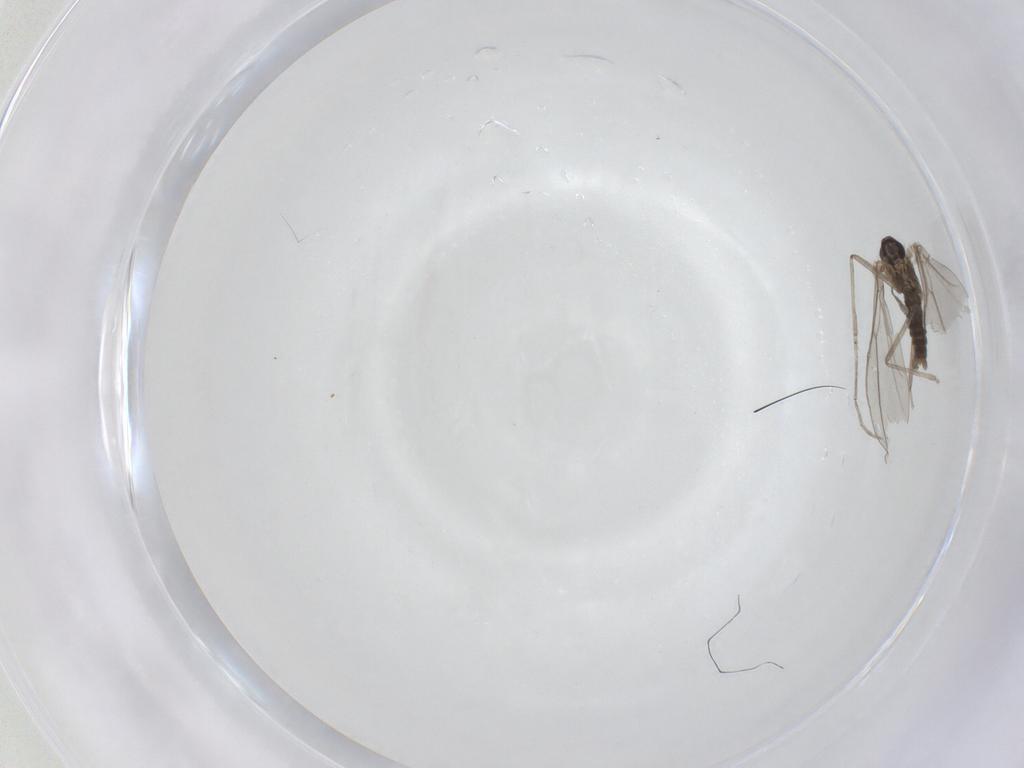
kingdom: Animalia
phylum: Arthropoda
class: Insecta
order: Diptera
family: Cecidomyiidae
